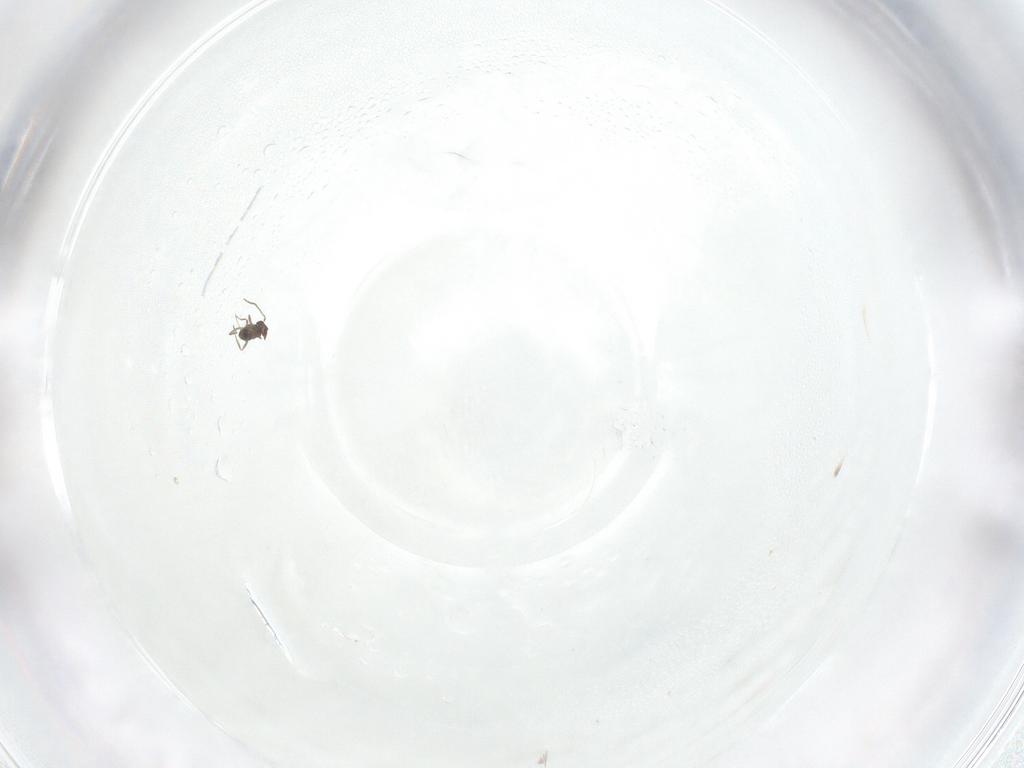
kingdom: Animalia
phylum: Arthropoda
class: Insecta
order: Hymenoptera
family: Mymaridae
